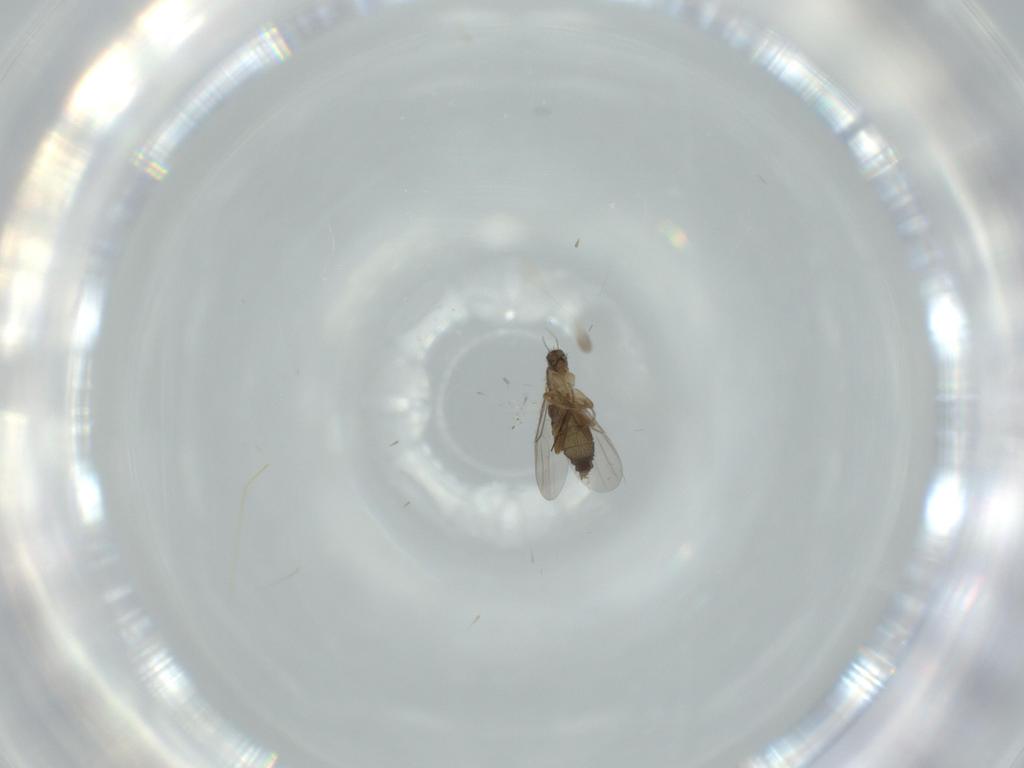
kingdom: Animalia
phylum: Arthropoda
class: Insecta
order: Diptera
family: Phoridae
